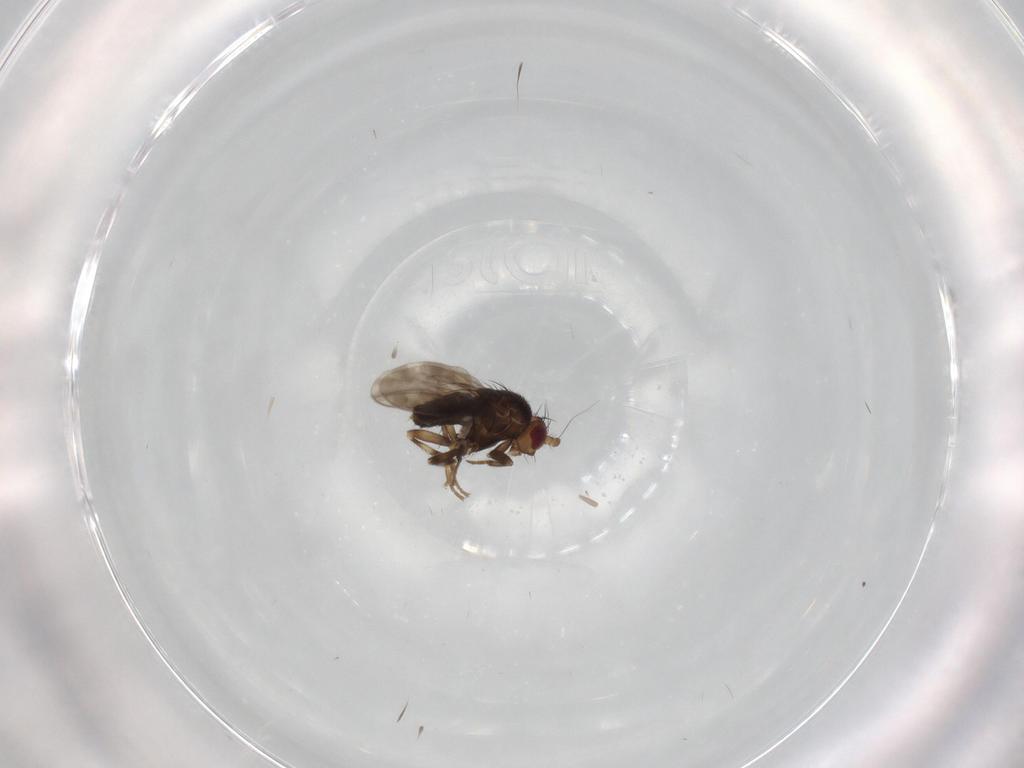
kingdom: Animalia
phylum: Arthropoda
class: Insecta
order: Diptera
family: Sphaeroceridae
